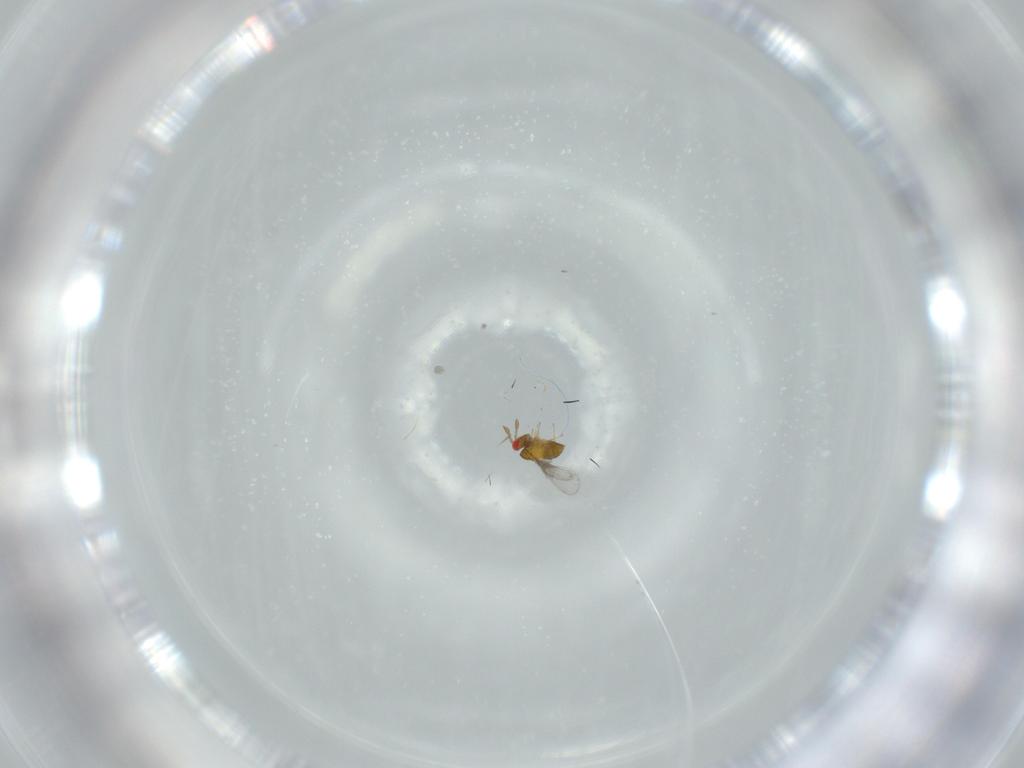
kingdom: Animalia
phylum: Arthropoda
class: Insecta
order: Hymenoptera
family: Trichogrammatidae
